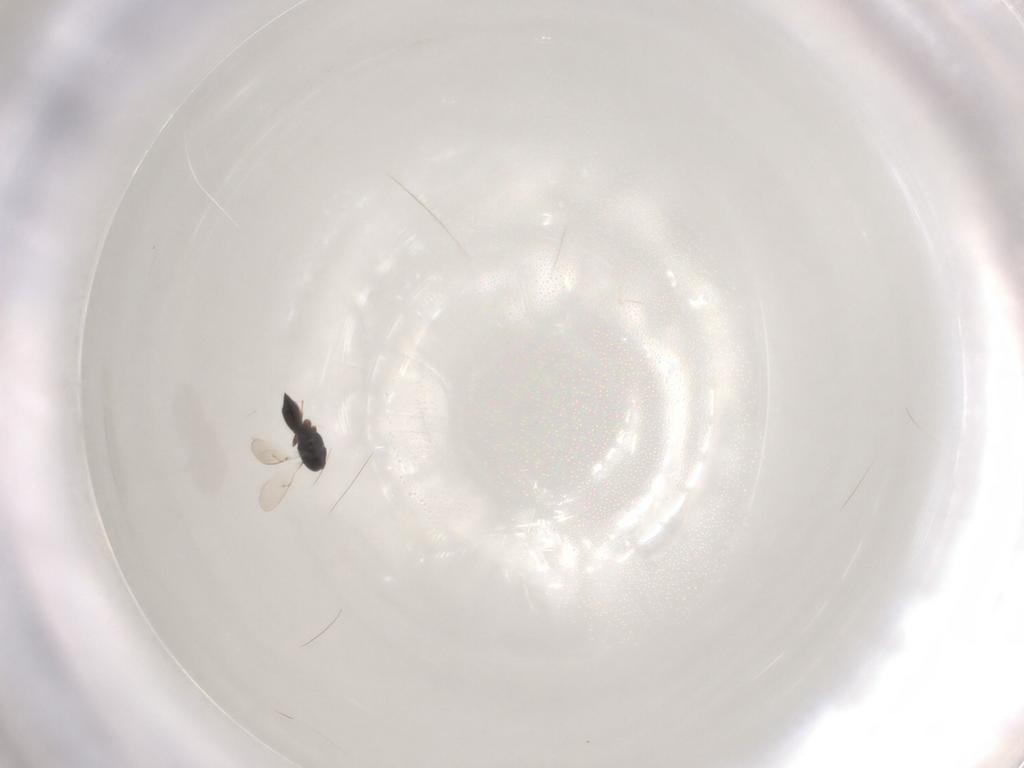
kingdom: Animalia
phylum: Arthropoda
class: Insecta
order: Hymenoptera
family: Scelionidae
